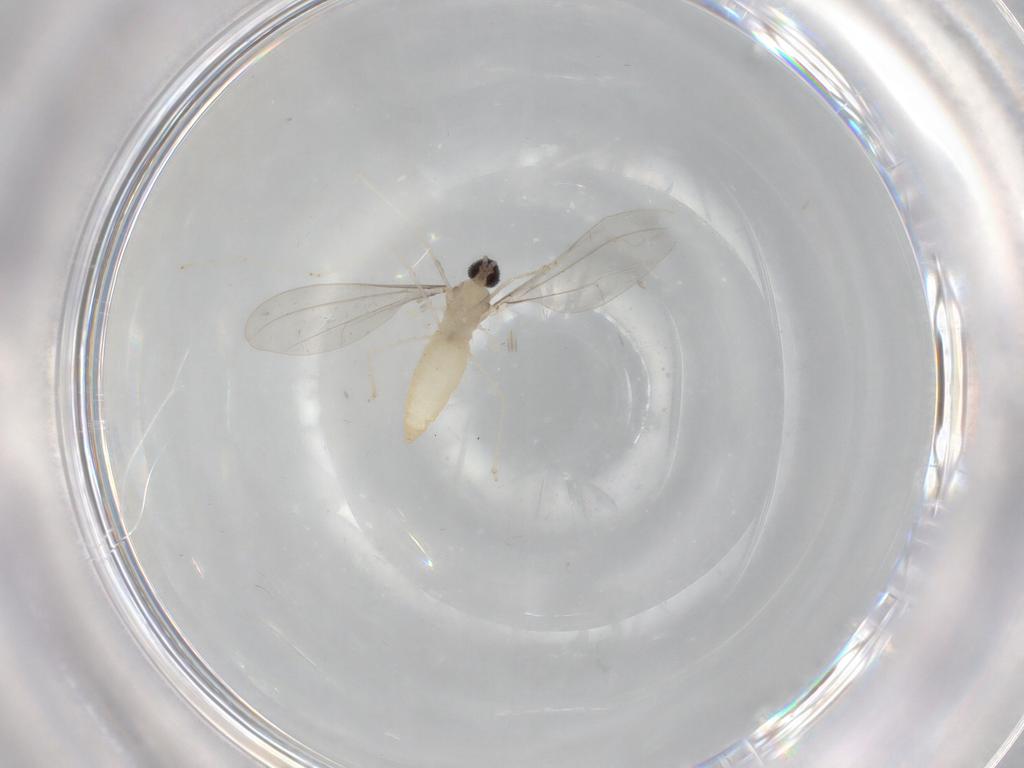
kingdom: Animalia
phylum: Arthropoda
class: Insecta
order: Diptera
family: Cecidomyiidae
